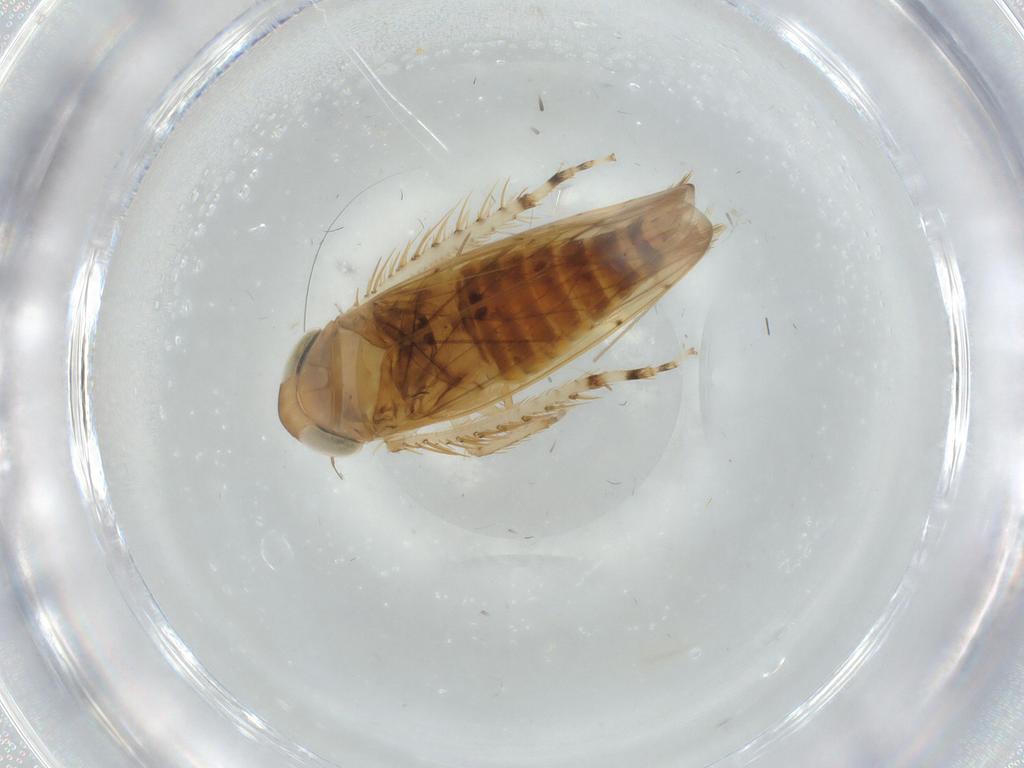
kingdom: Animalia
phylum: Arthropoda
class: Insecta
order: Hemiptera
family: Cicadellidae
